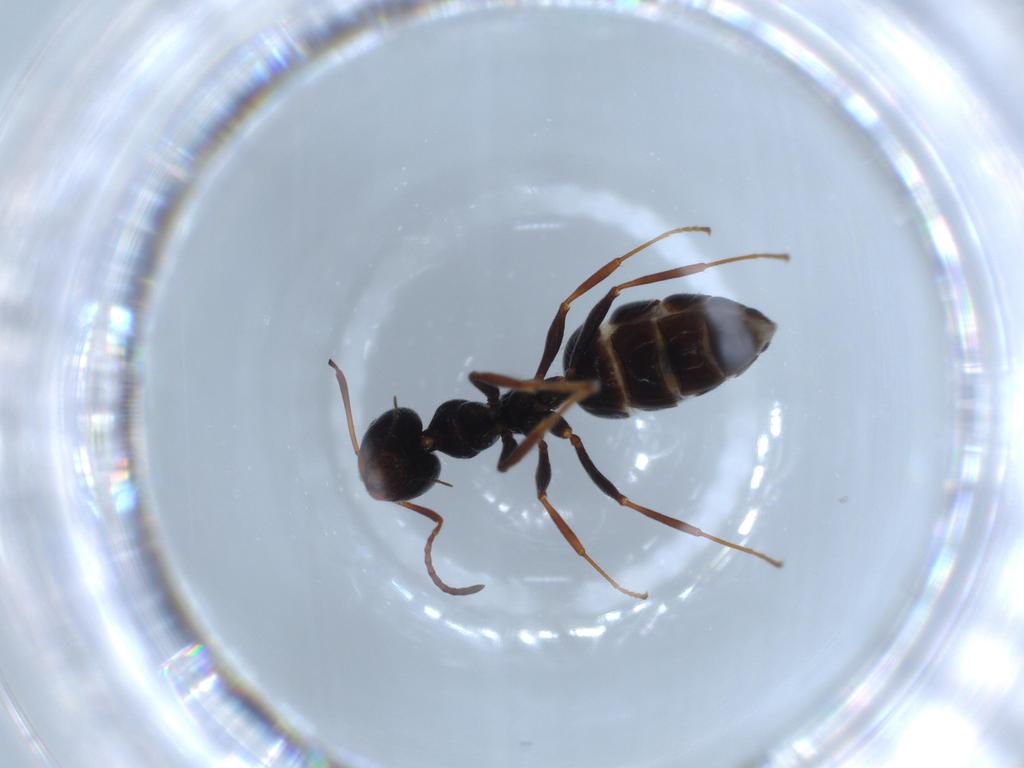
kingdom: Animalia
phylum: Arthropoda
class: Insecta
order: Hymenoptera
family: Formicidae
